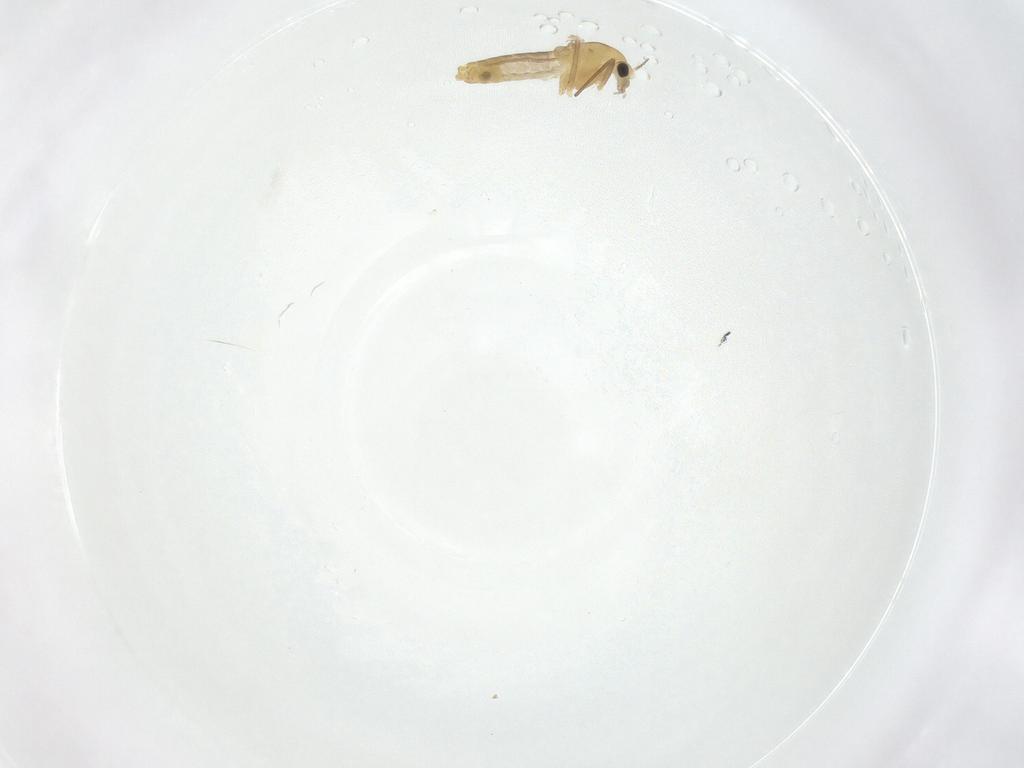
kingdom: Animalia
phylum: Arthropoda
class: Insecta
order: Diptera
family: Chironomidae
